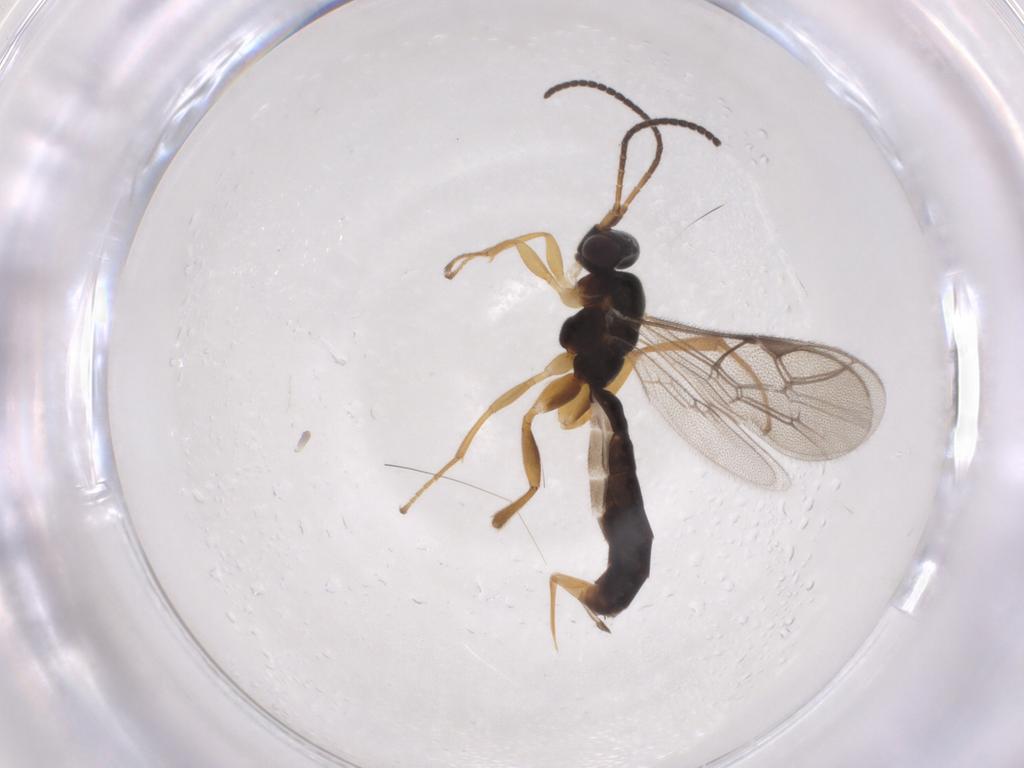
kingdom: Animalia
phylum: Arthropoda
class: Insecta
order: Hymenoptera
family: Ichneumonidae
